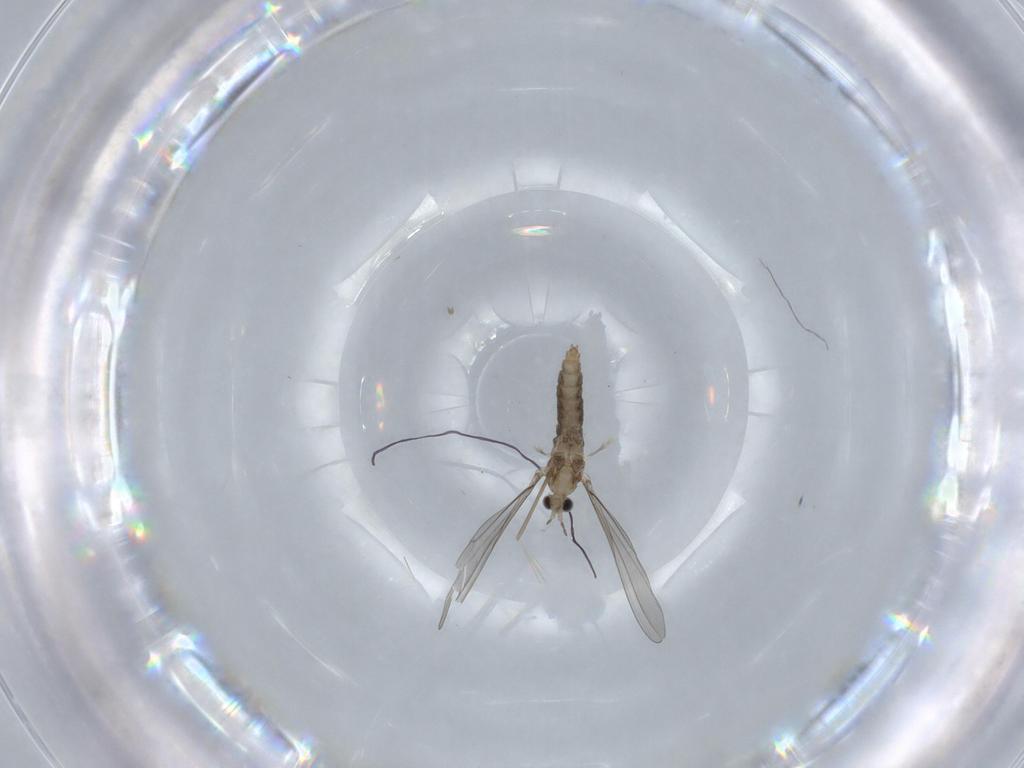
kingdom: Animalia
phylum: Arthropoda
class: Insecta
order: Diptera
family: Cecidomyiidae
